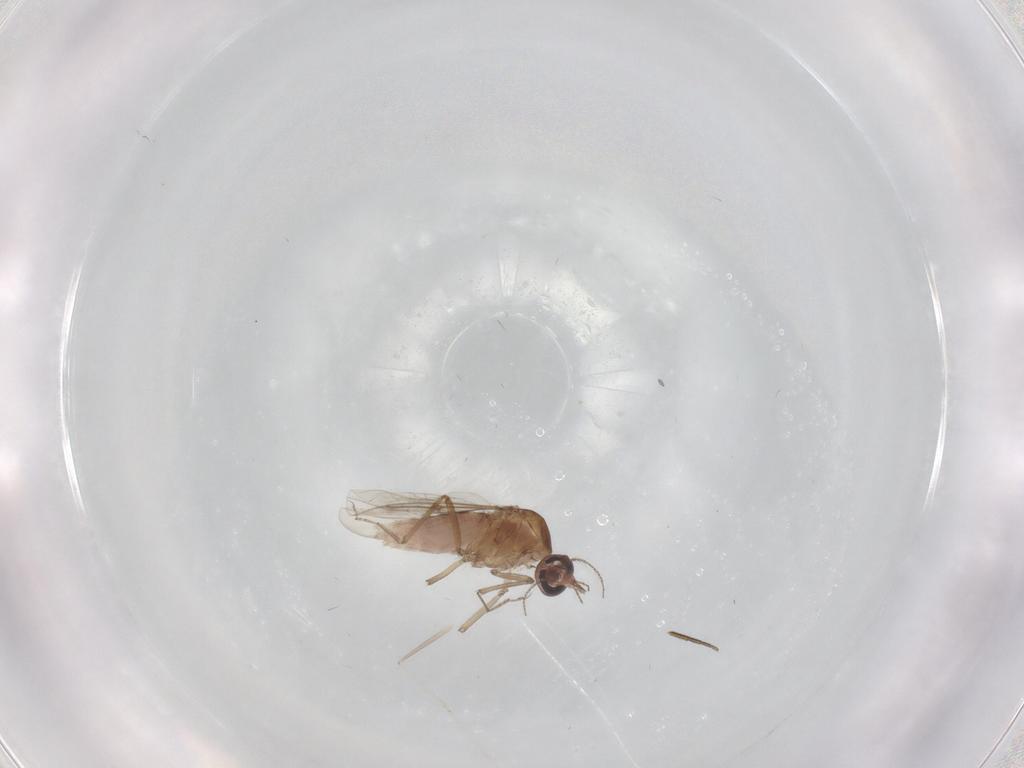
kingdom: Animalia
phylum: Arthropoda
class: Insecta
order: Diptera
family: Ceratopogonidae
